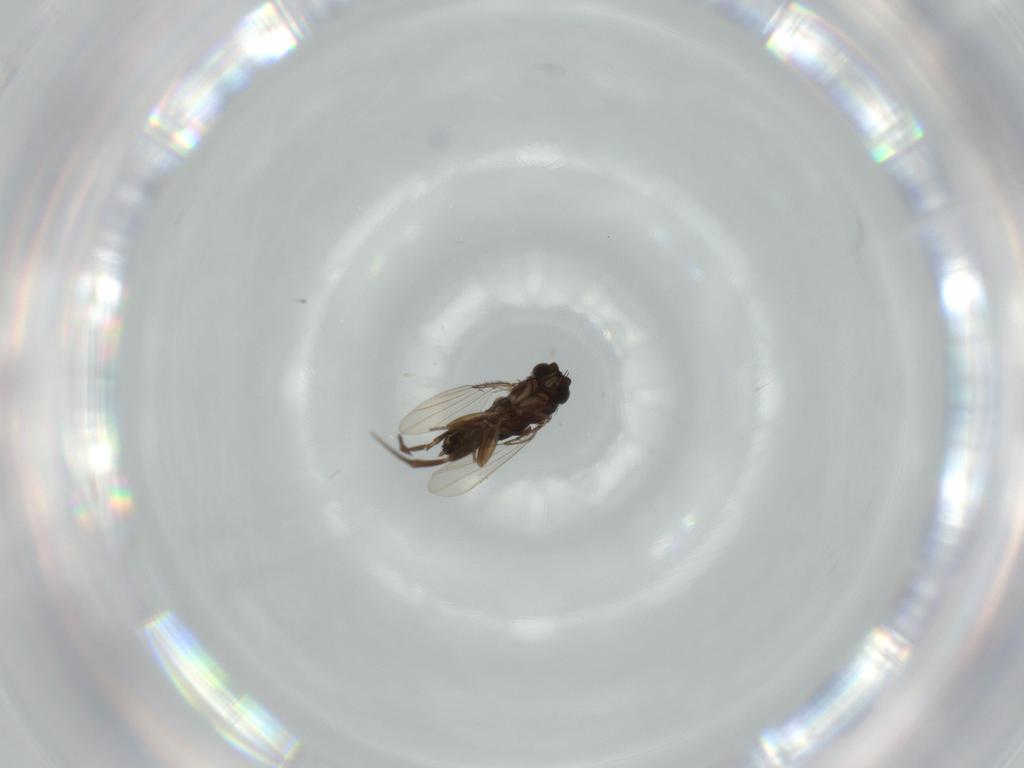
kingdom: Animalia
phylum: Arthropoda
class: Insecta
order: Diptera
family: Phoridae
